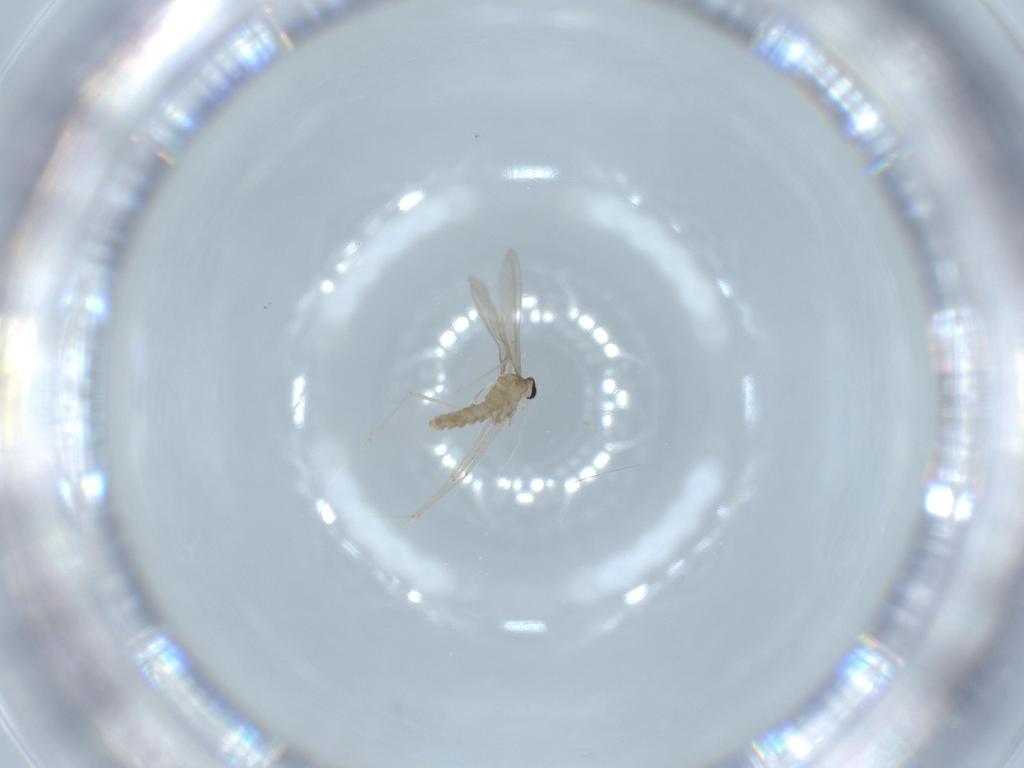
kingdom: Animalia
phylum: Arthropoda
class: Insecta
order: Diptera
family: Cecidomyiidae
